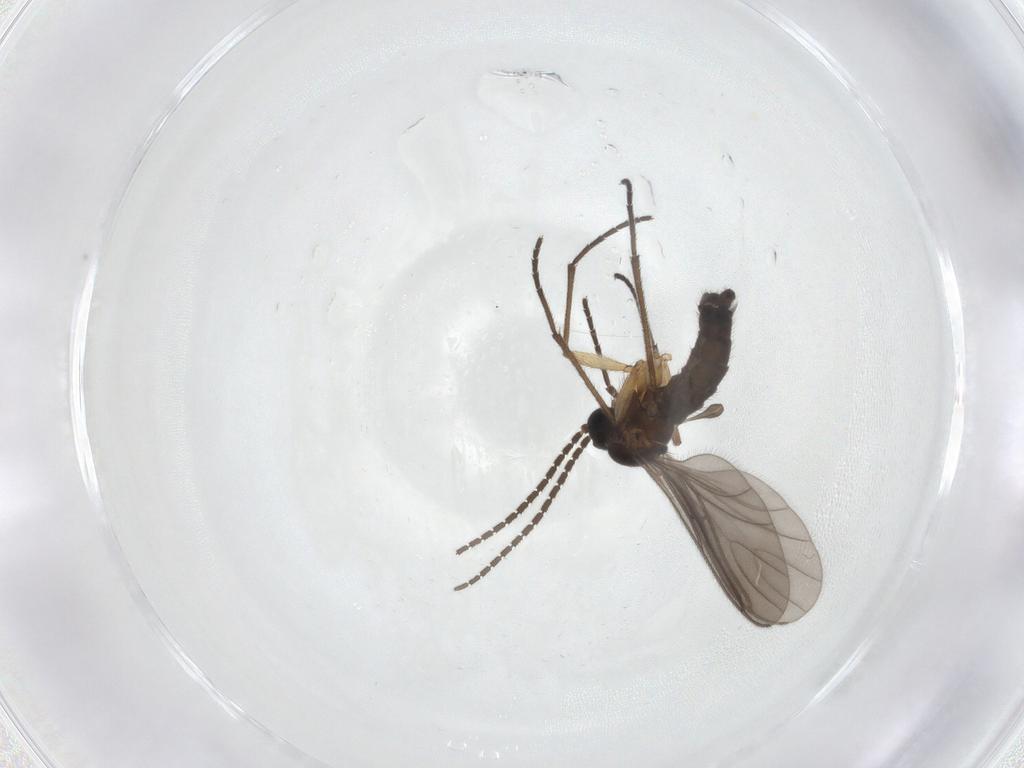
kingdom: Animalia
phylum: Arthropoda
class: Insecta
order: Diptera
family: Sciaridae
